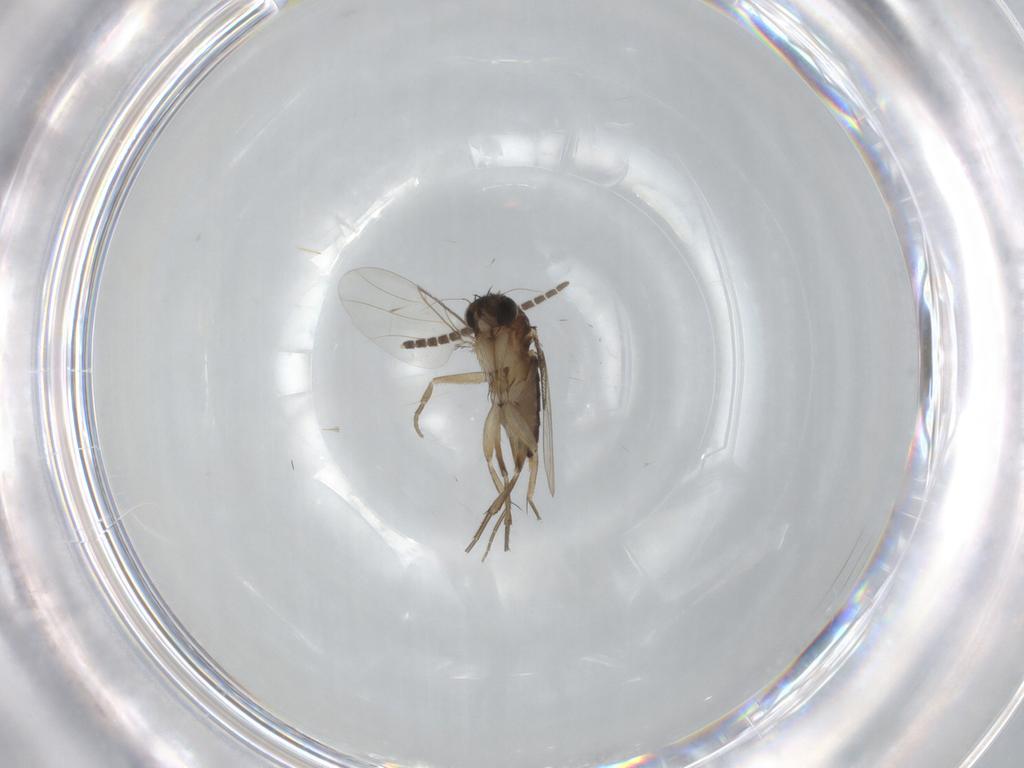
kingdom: Animalia
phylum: Arthropoda
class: Insecta
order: Diptera
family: Phoridae
